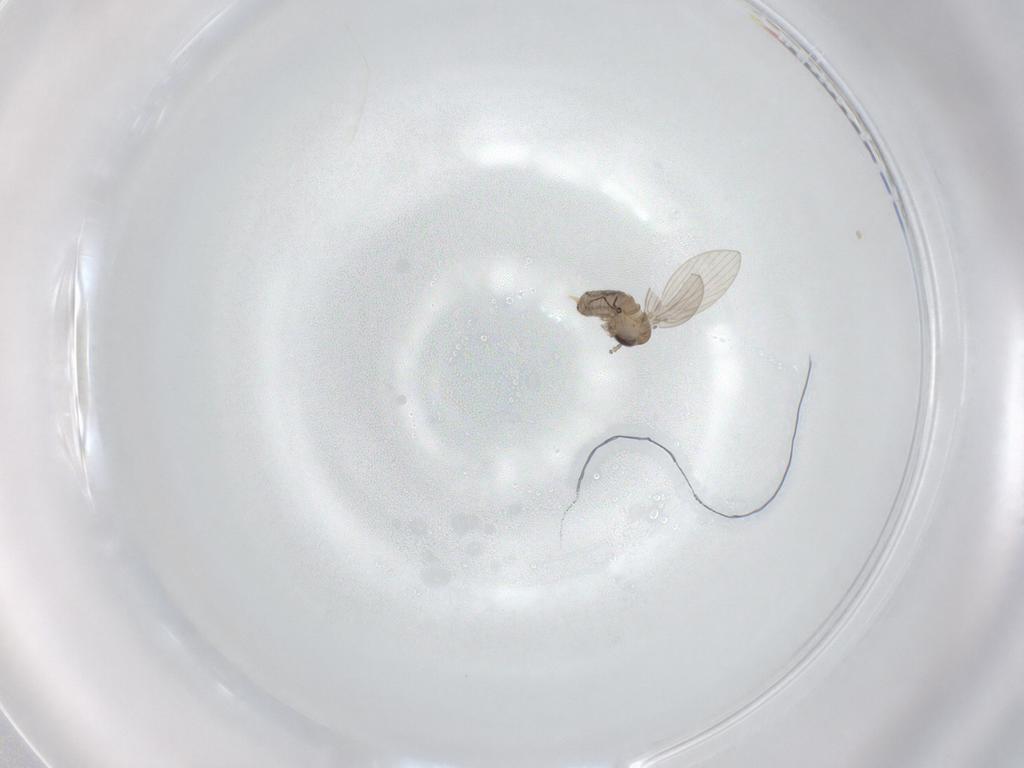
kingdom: Animalia
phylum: Arthropoda
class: Insecta
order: Diptera
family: Psychodidae
